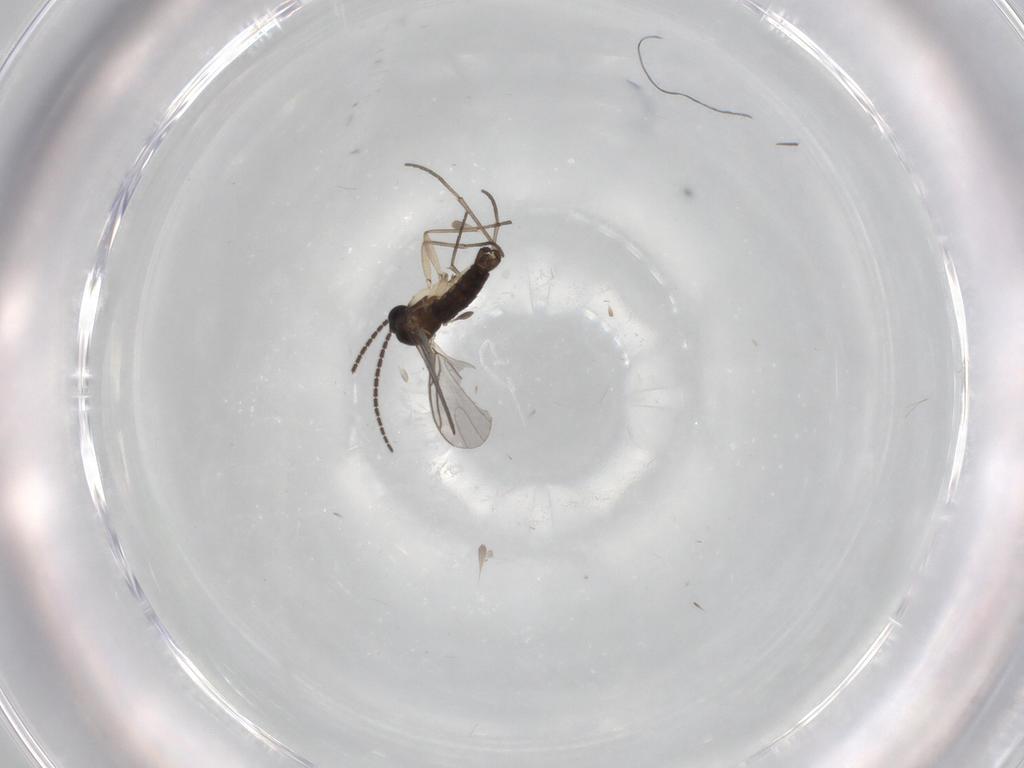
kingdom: Animalia
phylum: Arthropoda
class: Insecta
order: Diptera
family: Sciaridae
